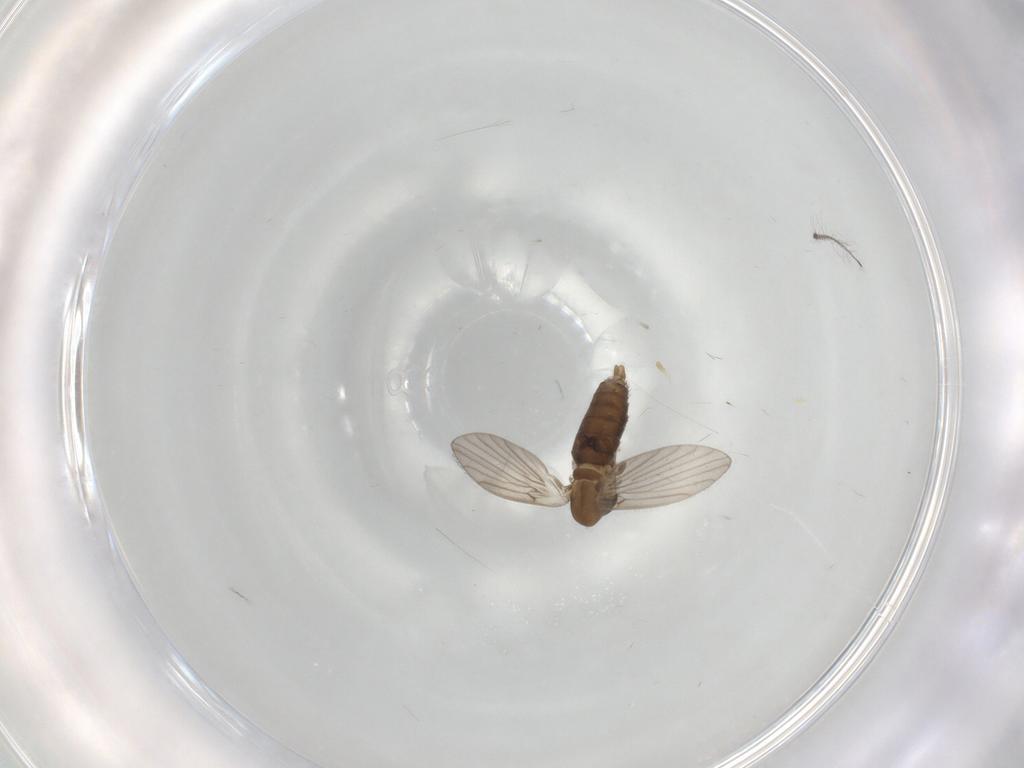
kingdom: Animalia
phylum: Arthropoda
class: Insecta
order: Diptera
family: Psychodidae
